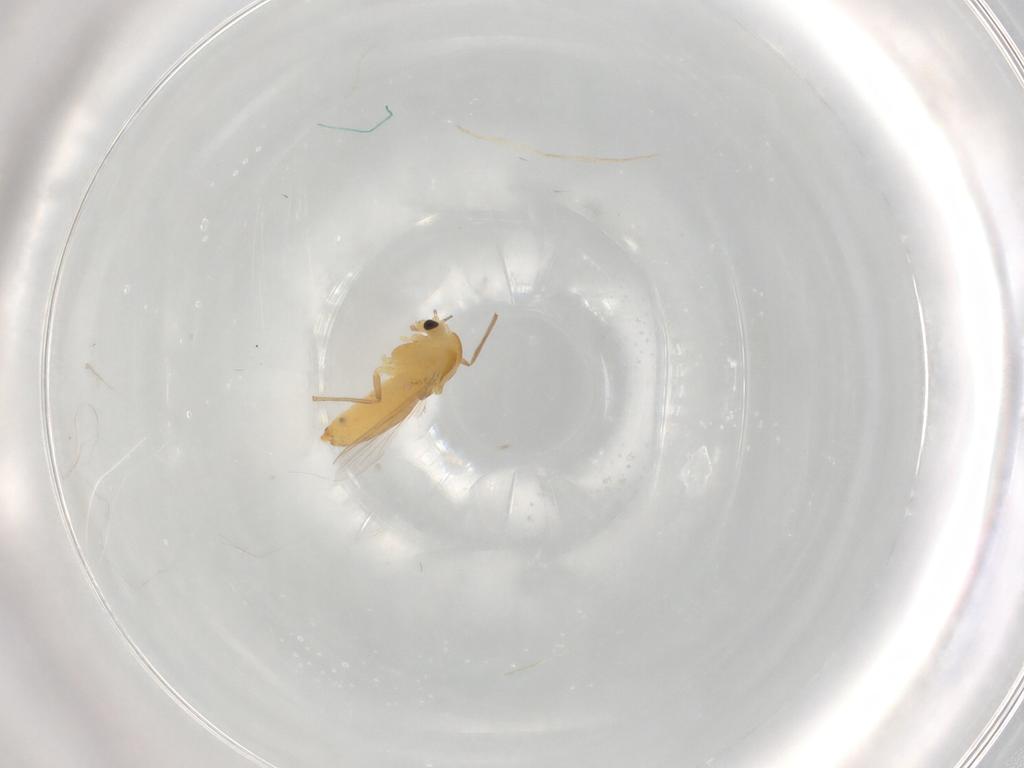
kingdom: Animalia
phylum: Arthropoda
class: Insecta
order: Diptera
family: Chironomidae
